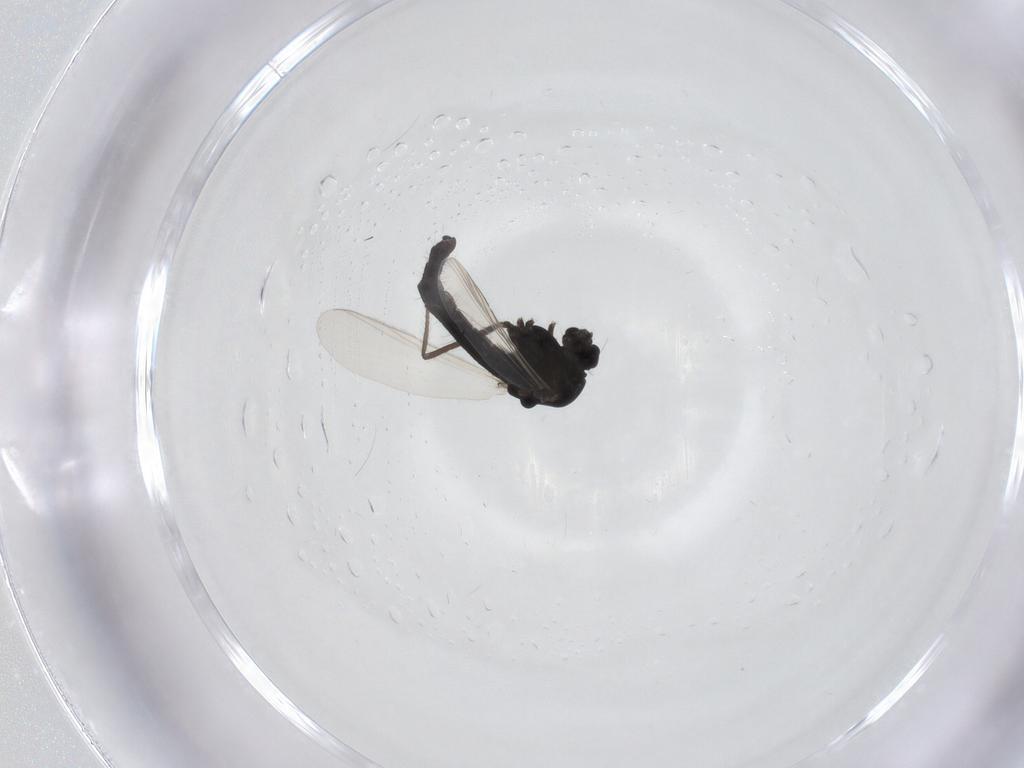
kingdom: Animalia
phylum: Arthropoda
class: Insecta
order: Diptera
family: Chironomidae
